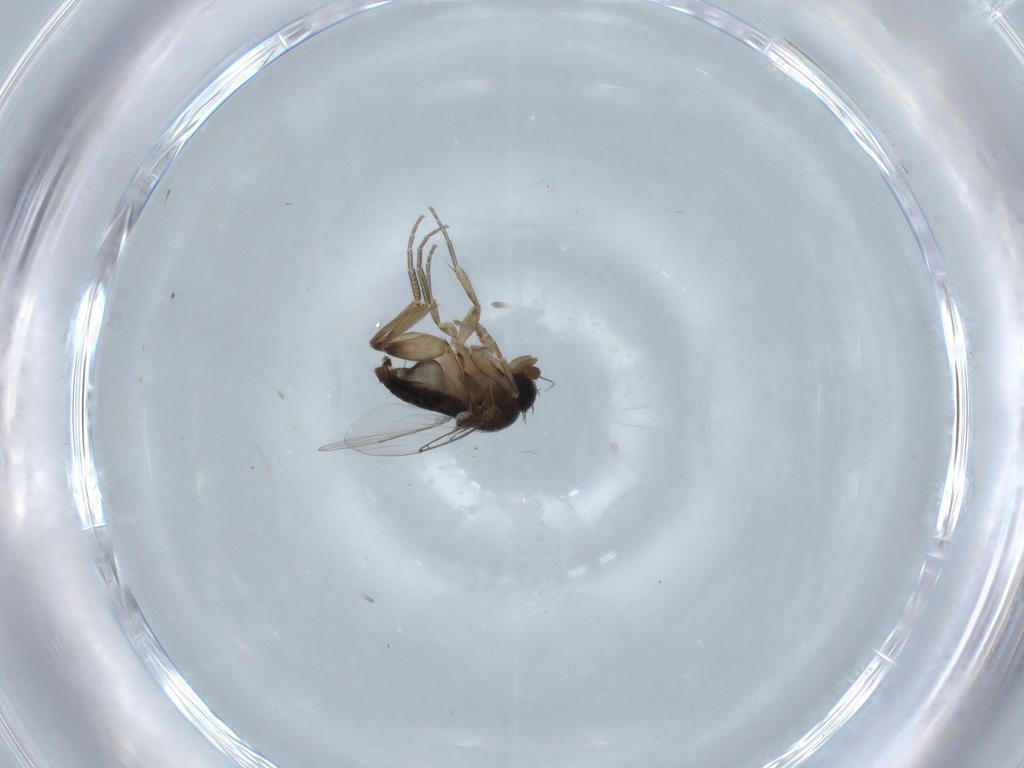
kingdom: Animalia
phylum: Arthropoda
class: Insecta
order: Diptera
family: Phoridae
